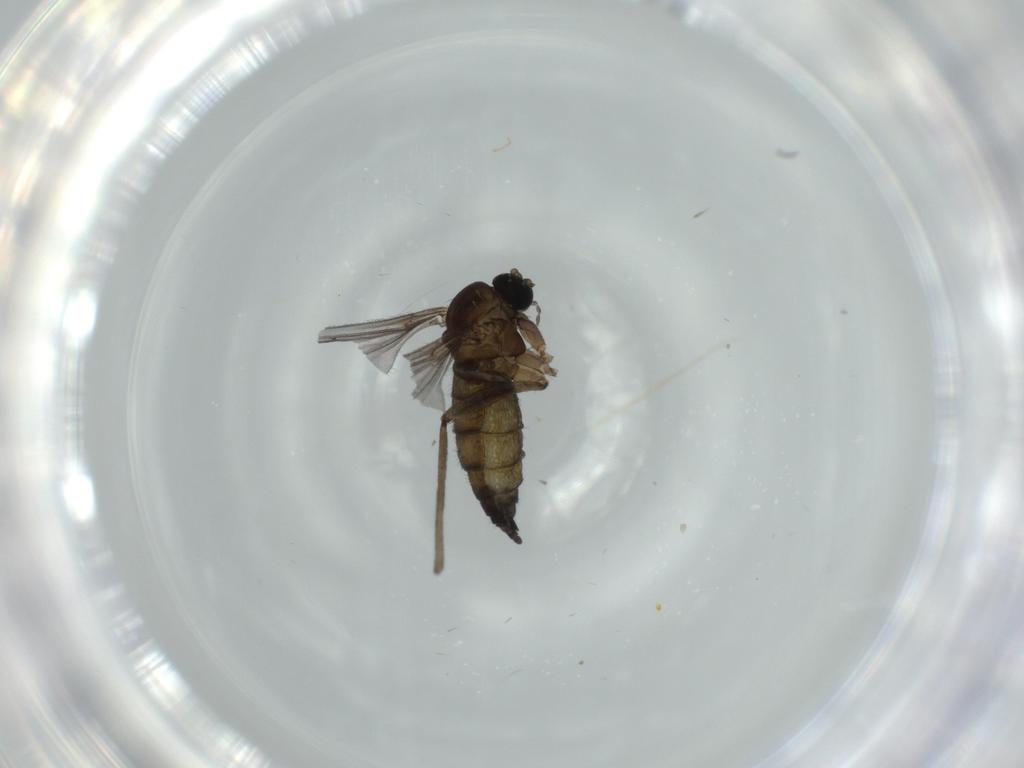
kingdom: Animalia
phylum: Arthropoda
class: Insecta
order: Diptera
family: Sciaridae
